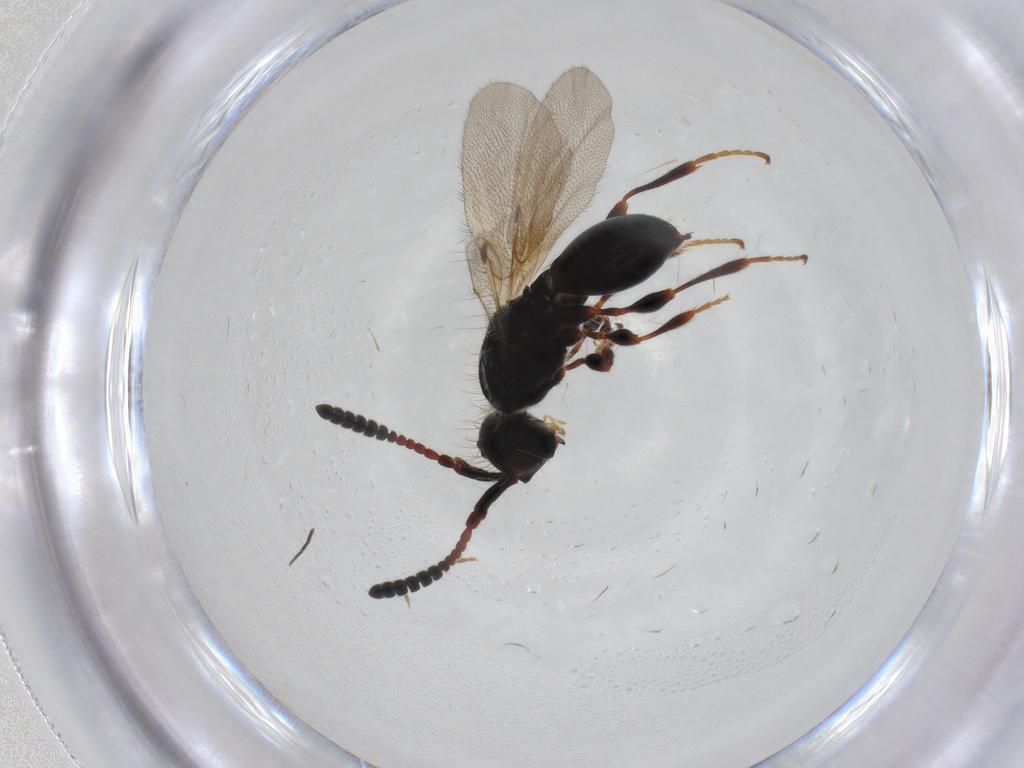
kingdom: Animalia
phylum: Arthropoda
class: Insecta
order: Hymenoptera
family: Diapriidae
